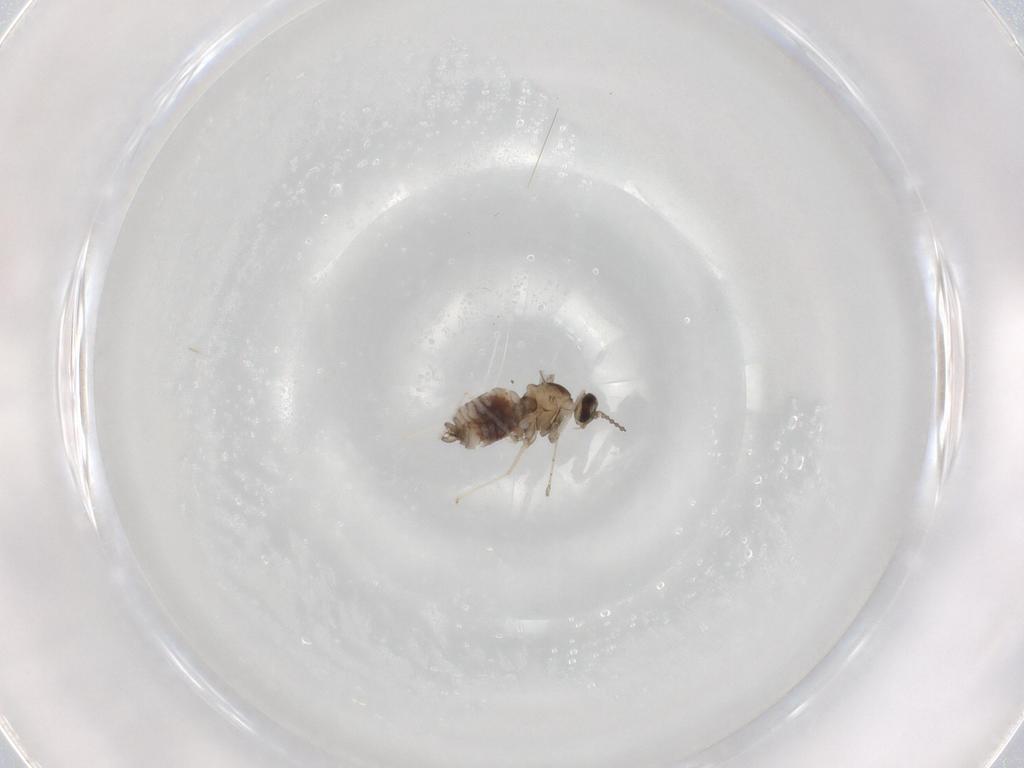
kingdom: Animalia
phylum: Arthropoda
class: Insecta
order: Diptera
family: Cecidomyiidae
